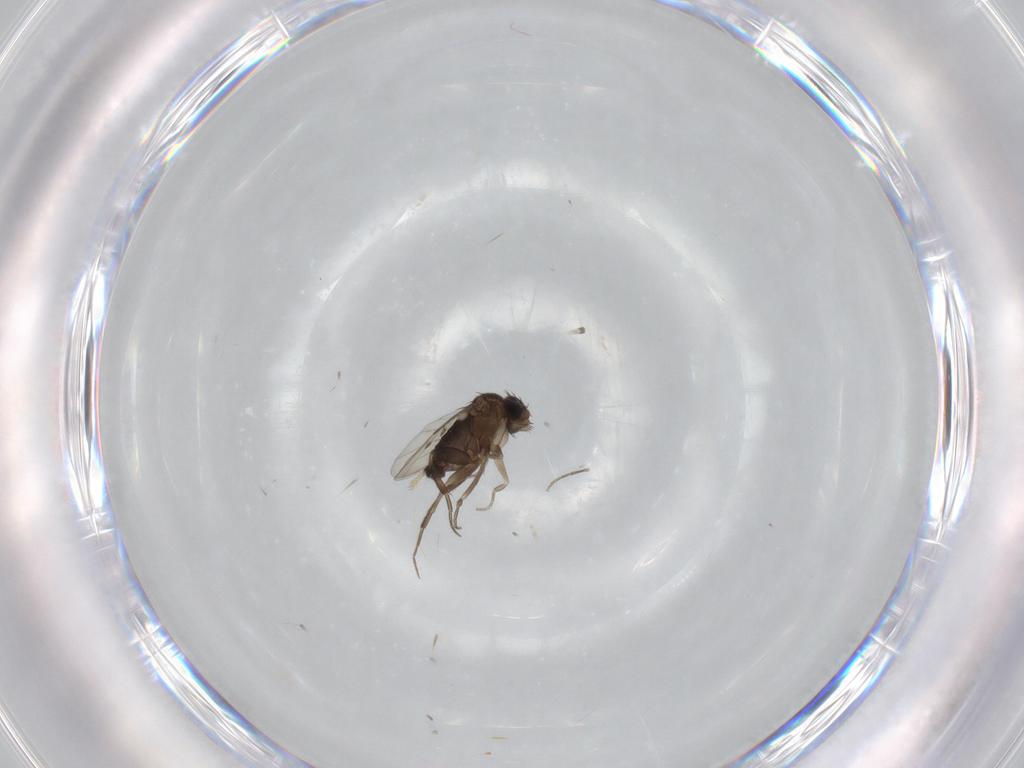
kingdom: Animalia
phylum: Arthropoda
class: Insecta
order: Diptera
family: Phoridae
